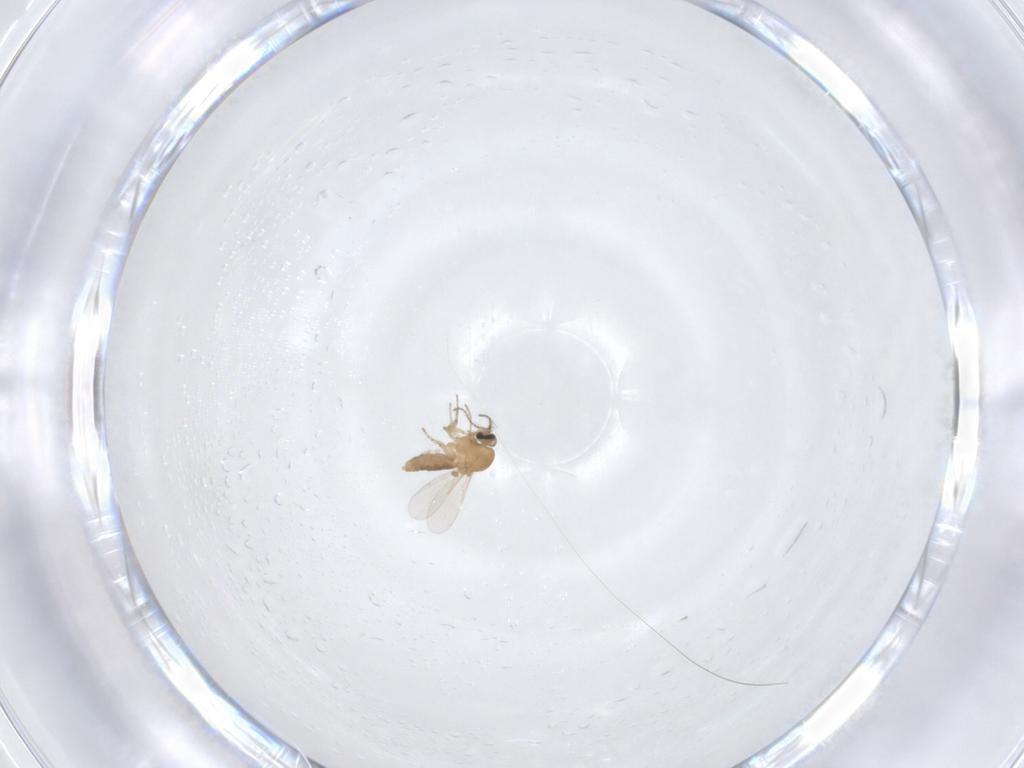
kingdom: Animalia
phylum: Arthropoda
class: Insecta
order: Diptera
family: Ceratopogonidae
